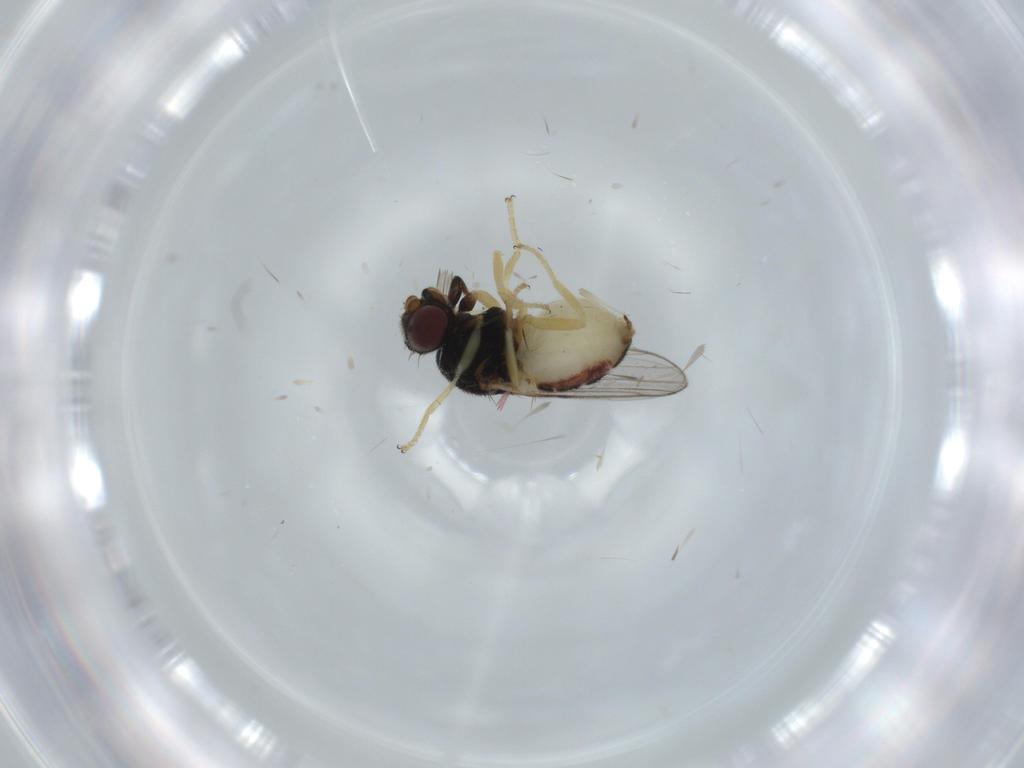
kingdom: Animalia
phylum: Arthropoda
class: Insecta
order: Diptera
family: Chloropidae
